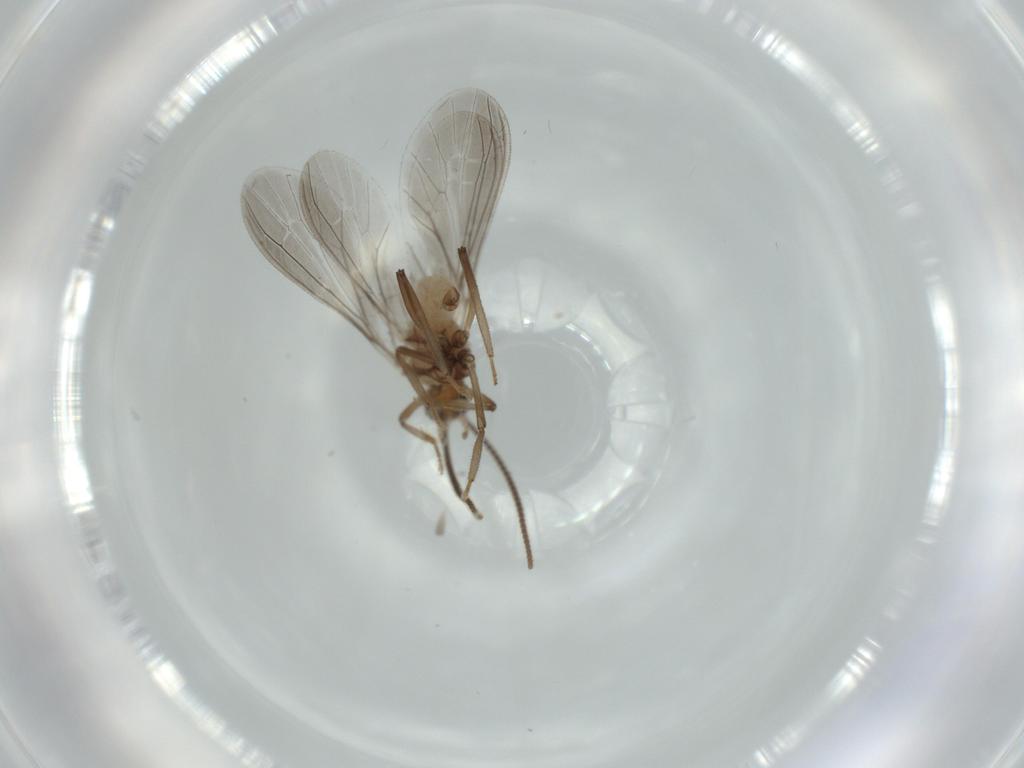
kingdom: Animalia
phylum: Arthropoda
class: Insecta
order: Neuroptera
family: Coniopterygidae
